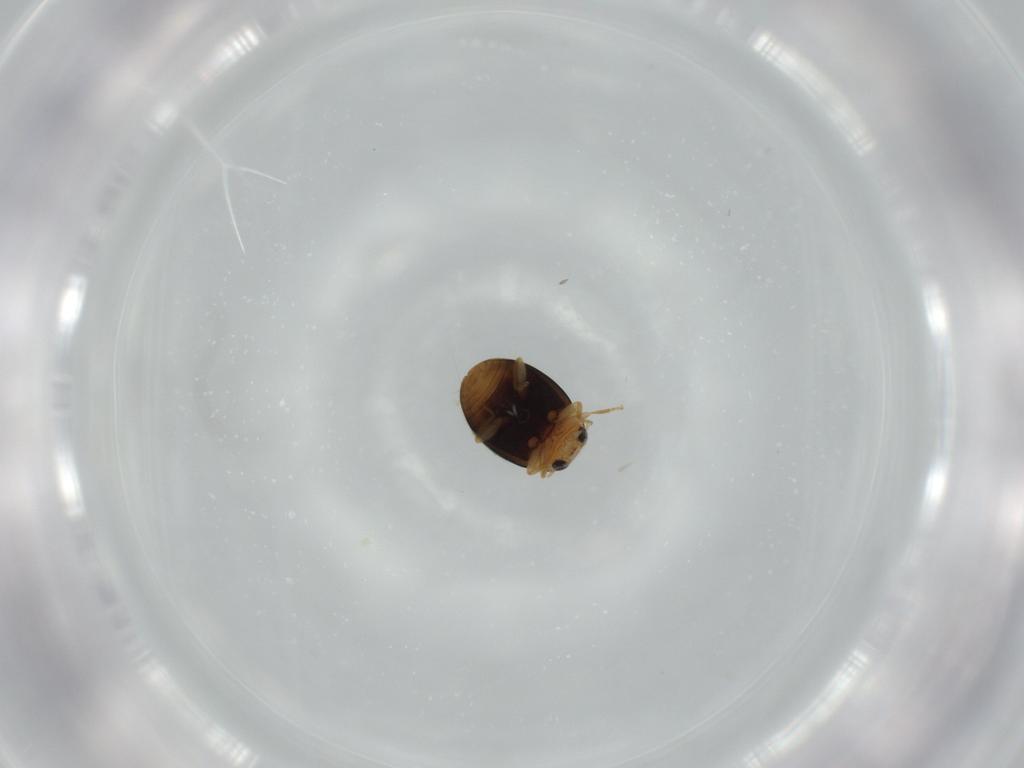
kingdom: Animalia
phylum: Arthropoda
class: Insecta
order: Coleoptera
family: Coccinellidae
